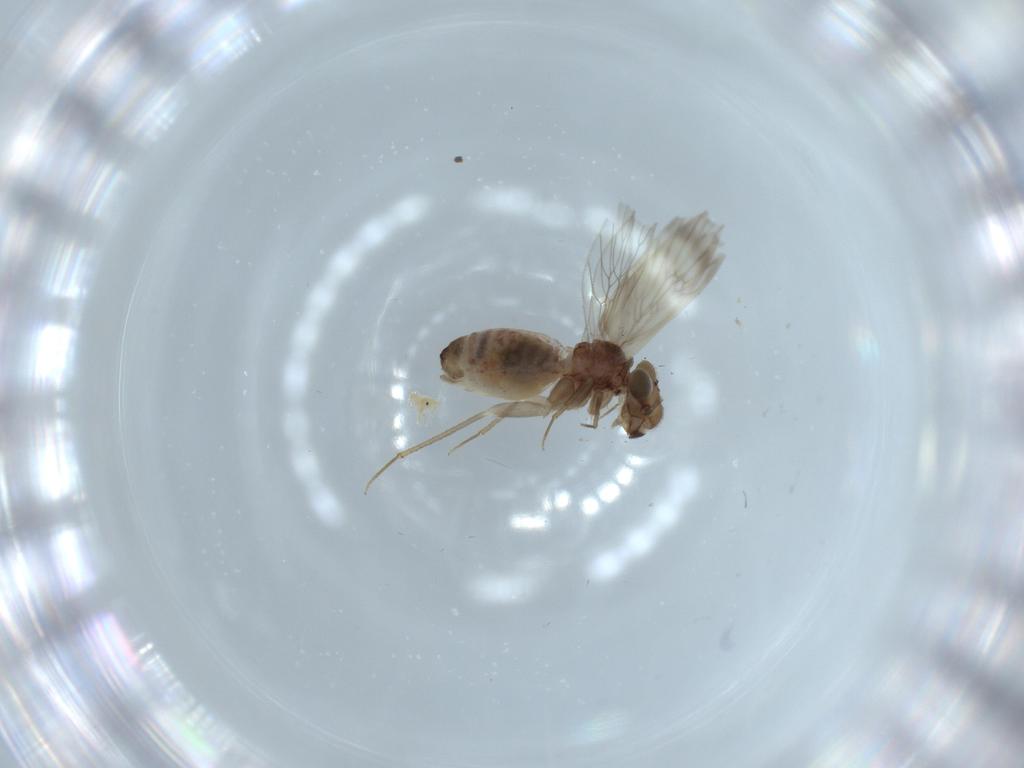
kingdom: Animalia
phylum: Arthropoda
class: Insecta
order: Psocodea
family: Lepidopsocidae
